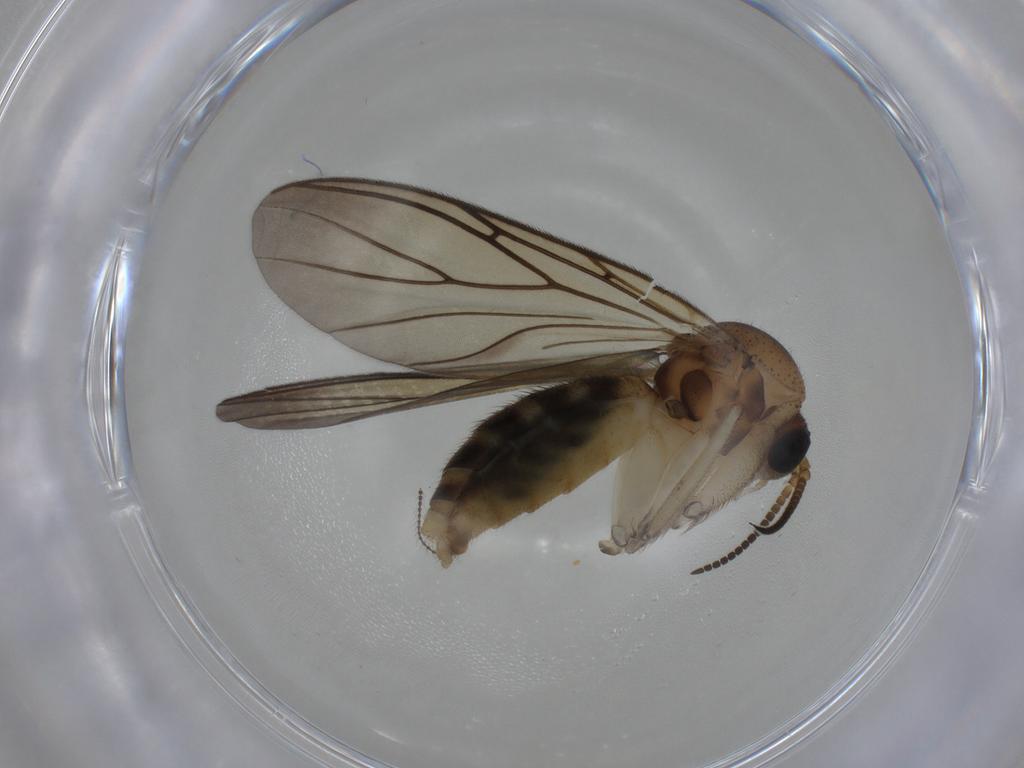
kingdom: Animalia
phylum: Arthropoda
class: Insecta
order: Diptera
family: Mycetophilidae
